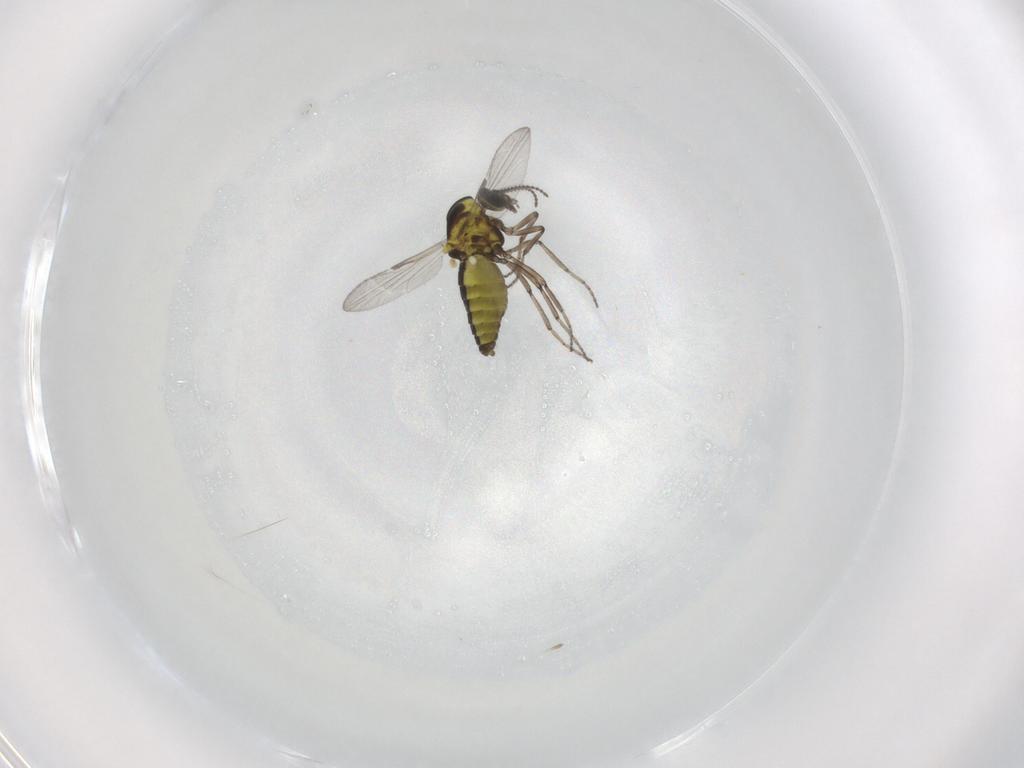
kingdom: Animalia
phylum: Arthropoda
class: Insecta
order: Diptera
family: Ceratopogonidae
